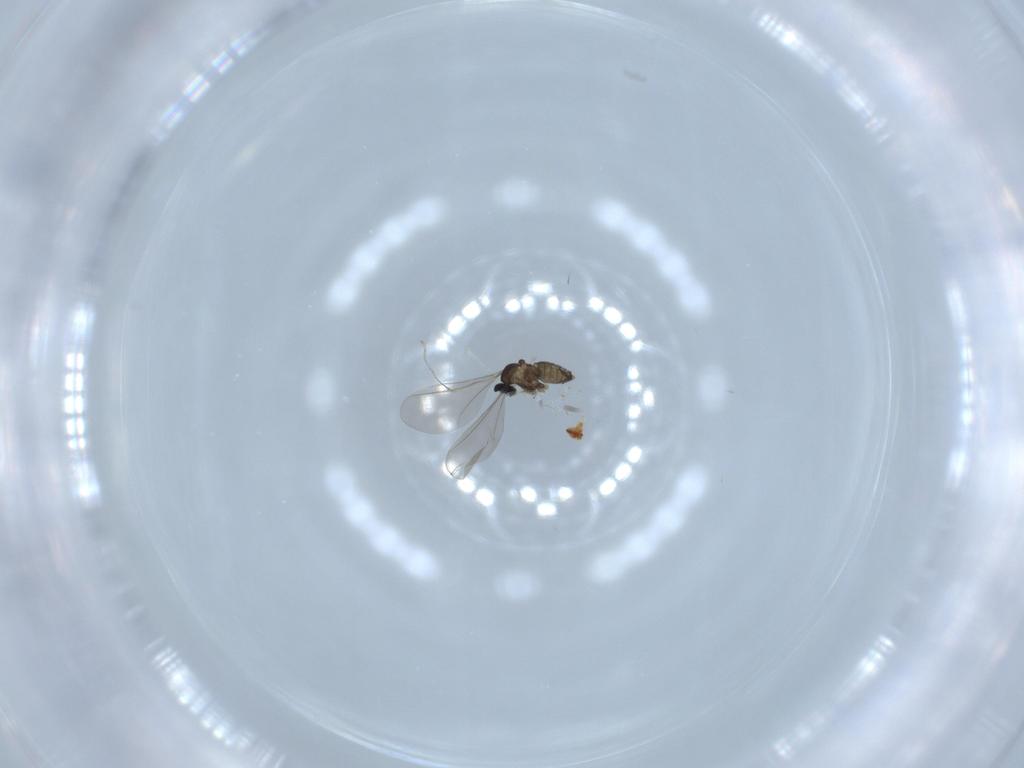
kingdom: Animalia
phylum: Arthropoda
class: Insecta
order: Diptera
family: Cecidomyiidae
